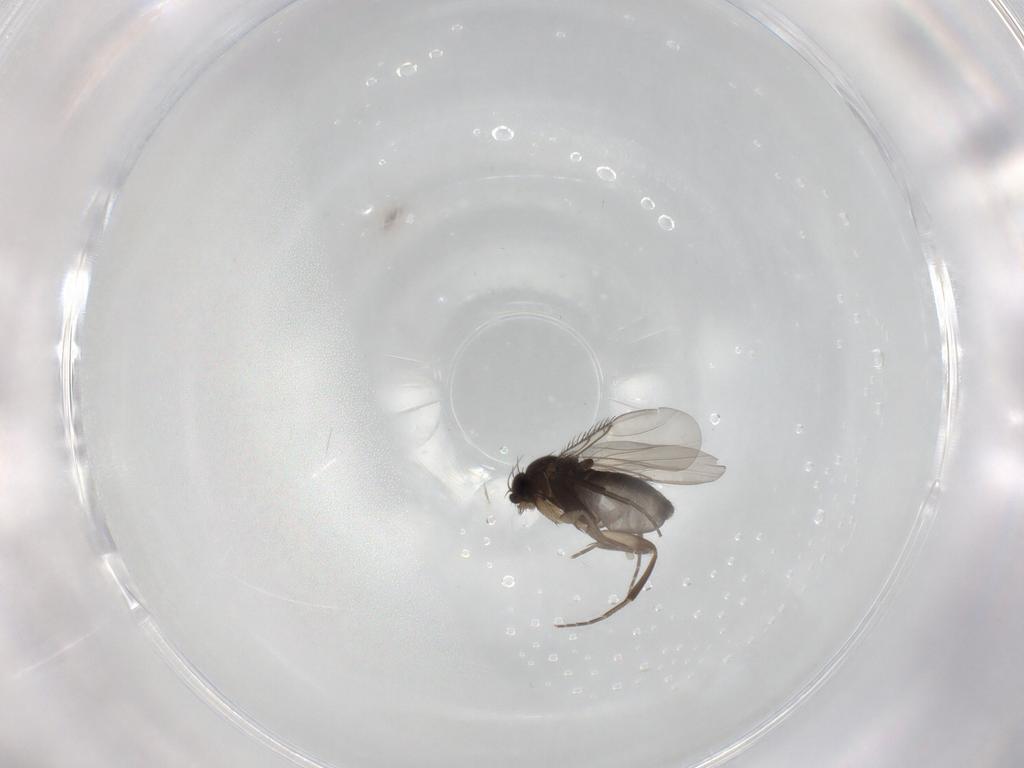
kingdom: Animalia
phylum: Arthropoda
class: Insecta
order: Diptera
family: Phoridae
